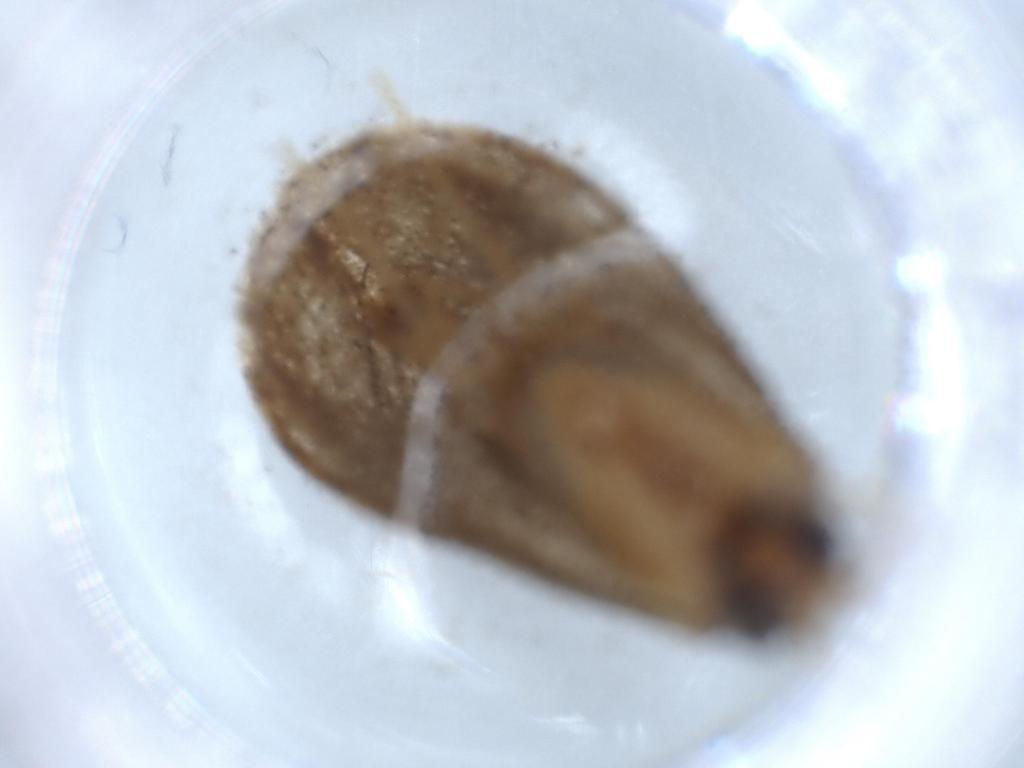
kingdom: Animalia
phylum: Arthropoda
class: Insecta
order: Lepidoptera
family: Tineidae
